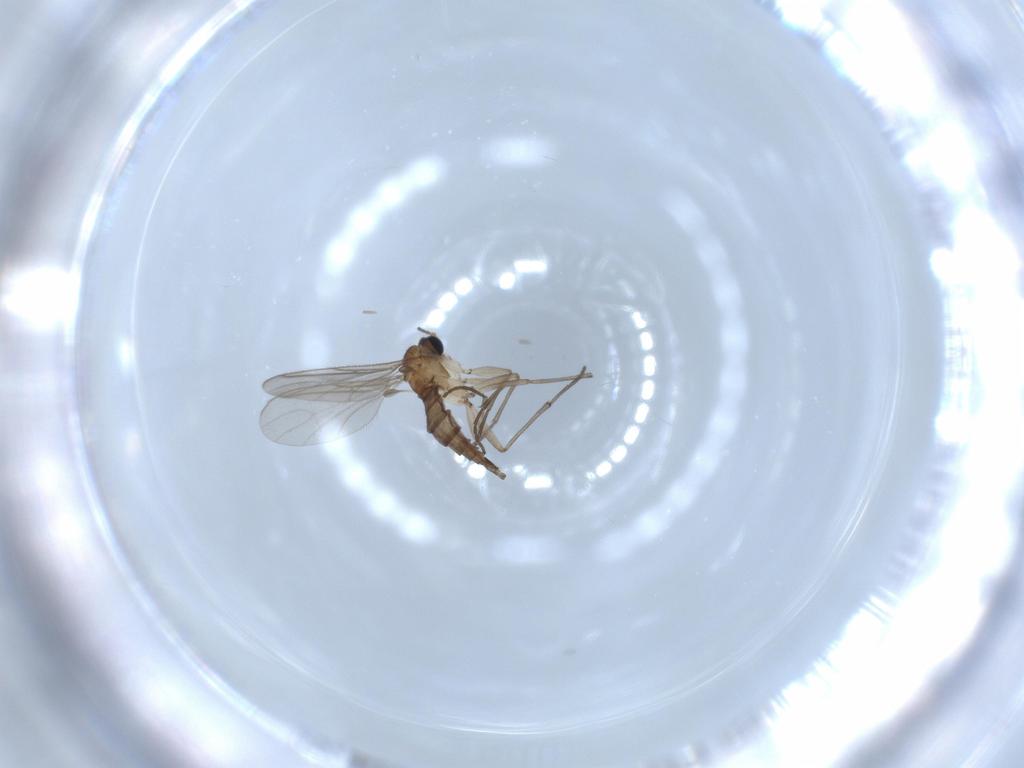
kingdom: Animalia
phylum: Arthropoda
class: Insecta
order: Diptera
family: Sciaridae
